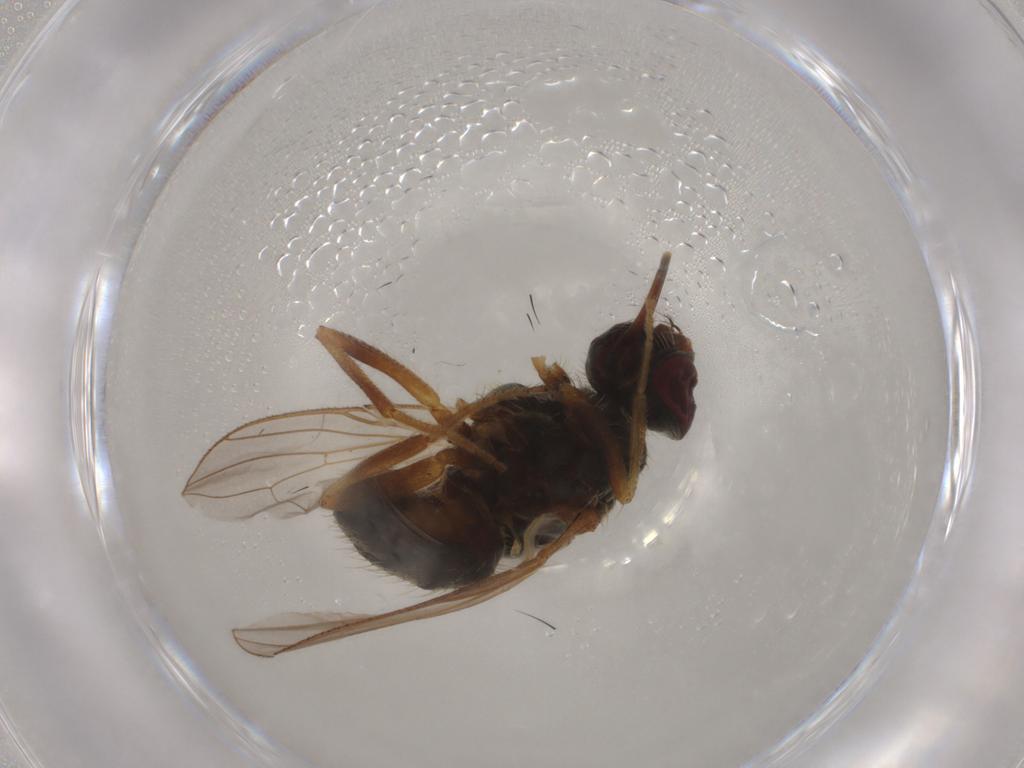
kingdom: Animalia
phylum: Arthropoda
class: Insecta
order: Diptera
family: Muscidae
